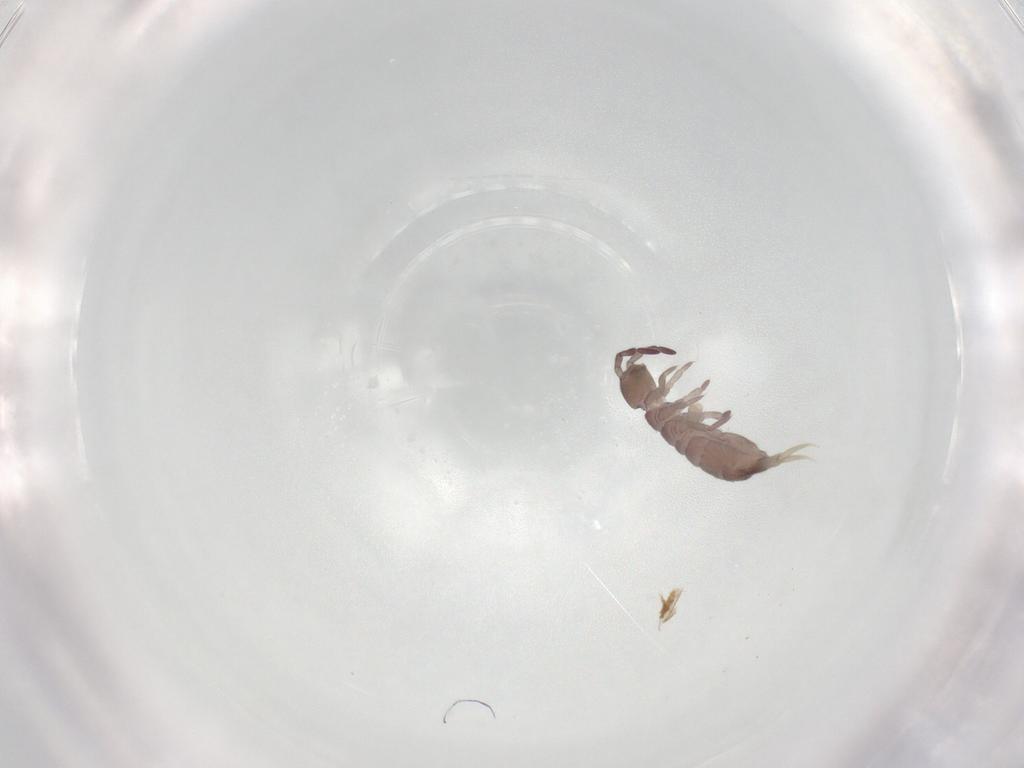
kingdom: Animalia
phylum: Arthropoda
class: Collembola
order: Entomobryomorpha
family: Isotomidae
